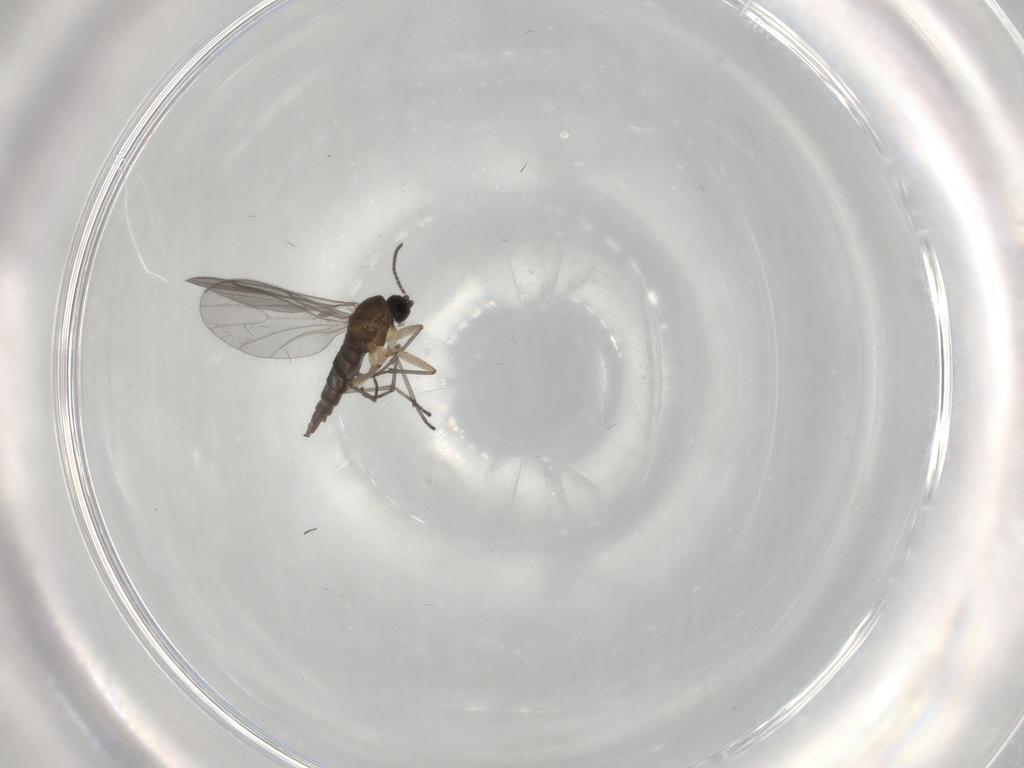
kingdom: Animalia
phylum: Arthropoda
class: Insecta
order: Diptera
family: Sciaridae
